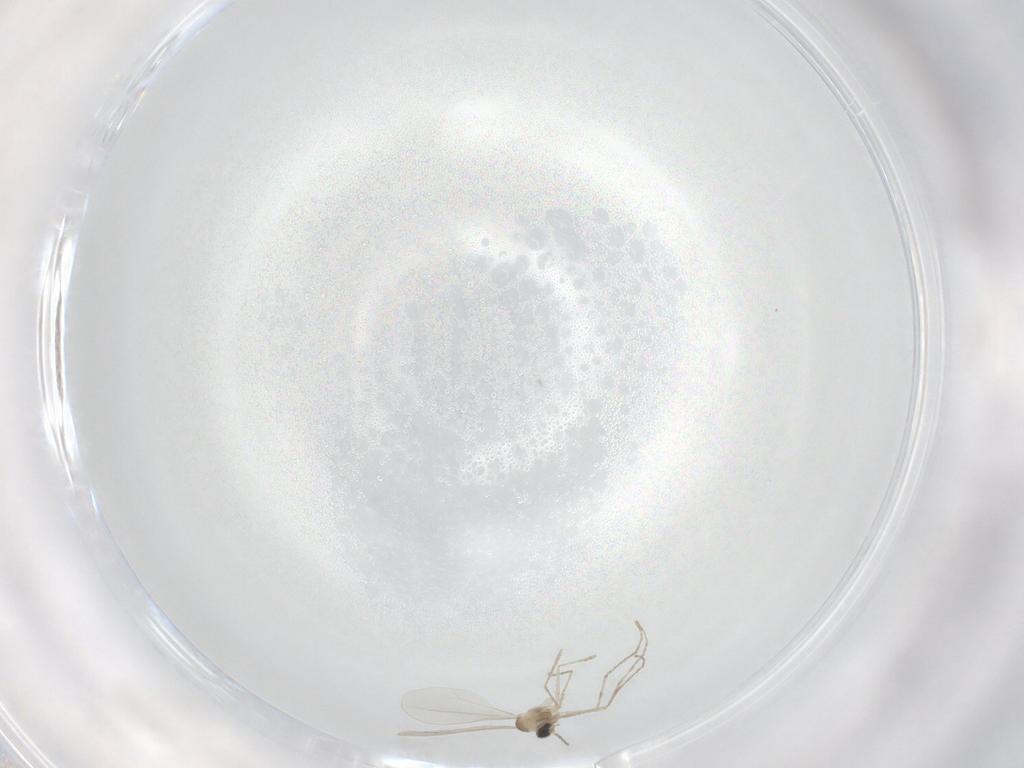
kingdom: Animalia
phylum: Arthropoda
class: Insecta
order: Diptera
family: Cecidomyiidae
